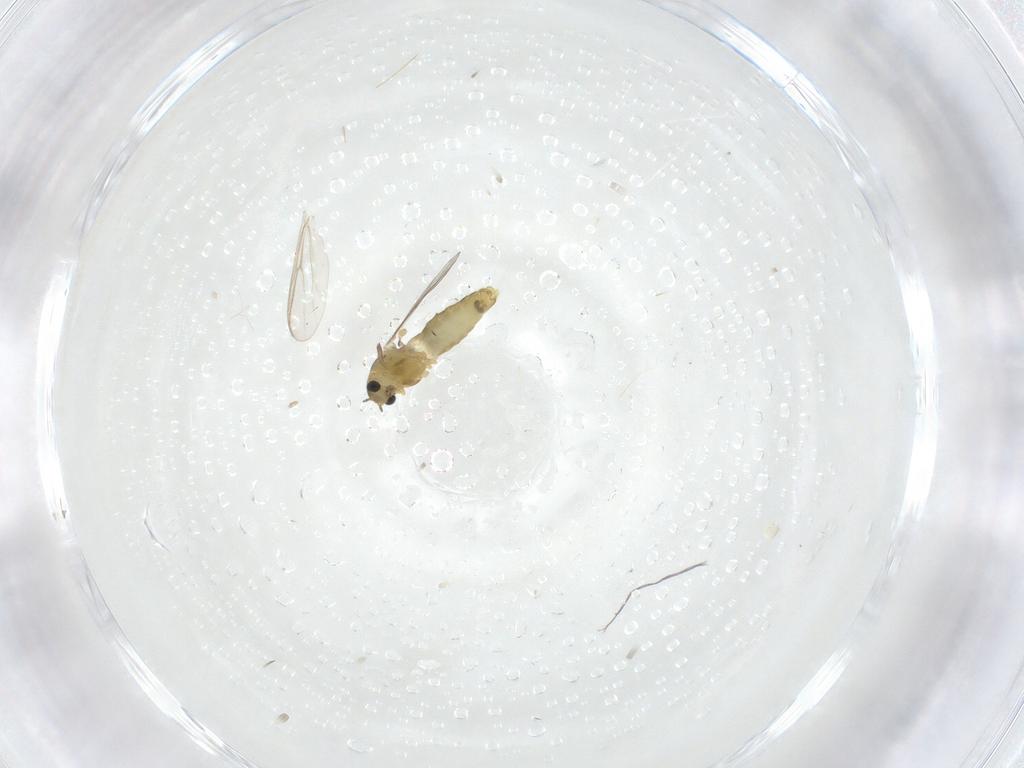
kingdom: Animalia
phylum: Arthropoda
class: Insecta
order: Diptera
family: Chironomidae
